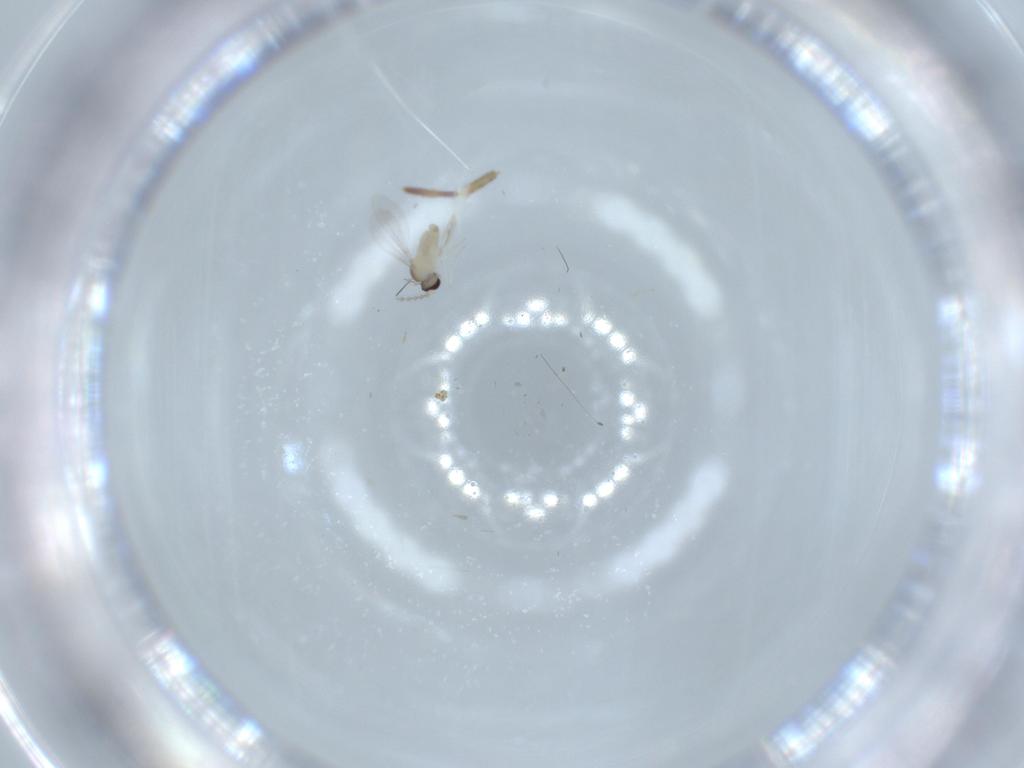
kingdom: Animalia
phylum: Arthropoda
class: Insecta
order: Diptera
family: Cecidomyiidae
